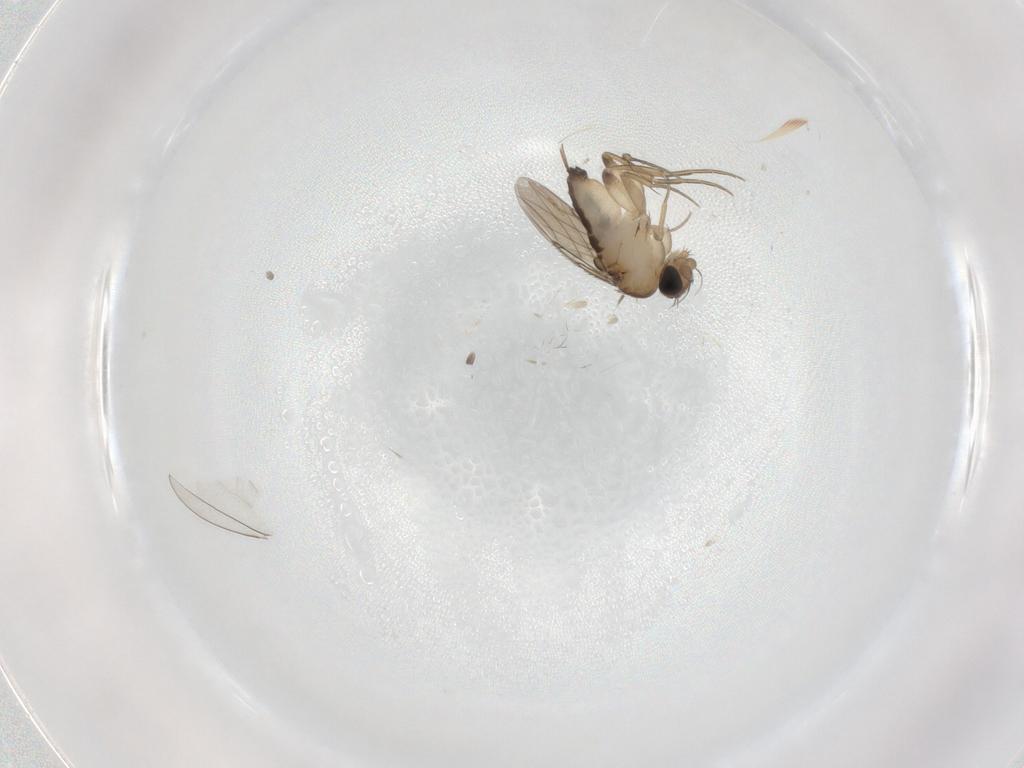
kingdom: Animalia
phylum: Arthropoda
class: Insecta
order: Diptera
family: Phoridae
